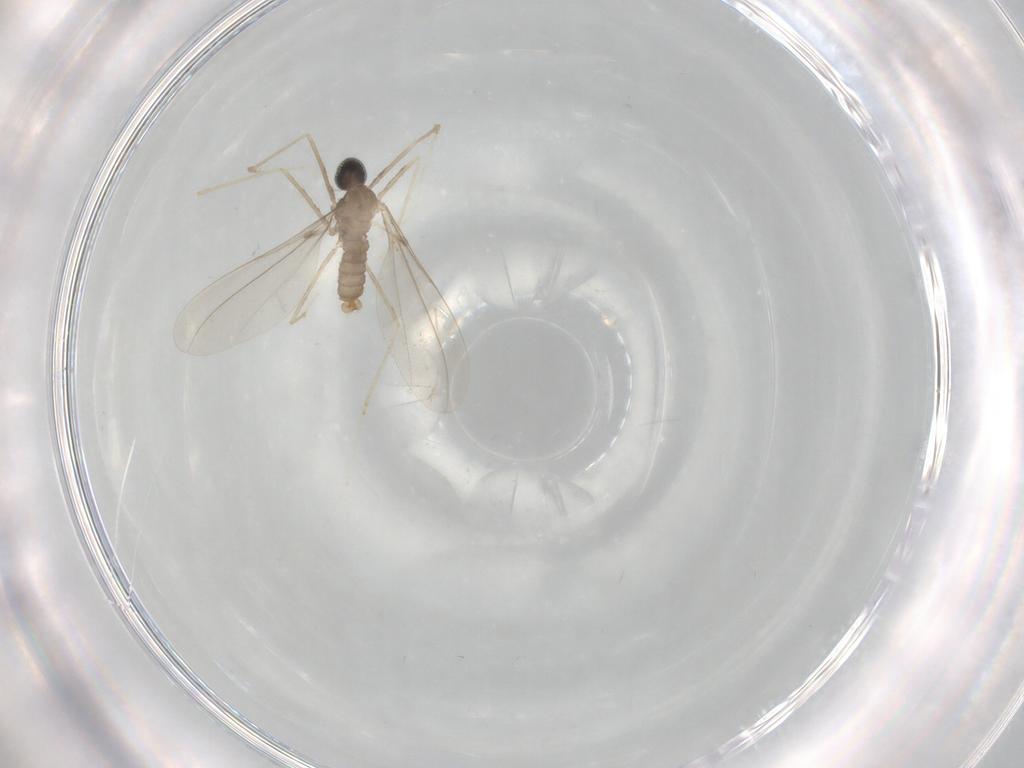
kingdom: Animalia
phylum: Arthropoda
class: Insecta
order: Diptera
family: Cecidomyiidae
